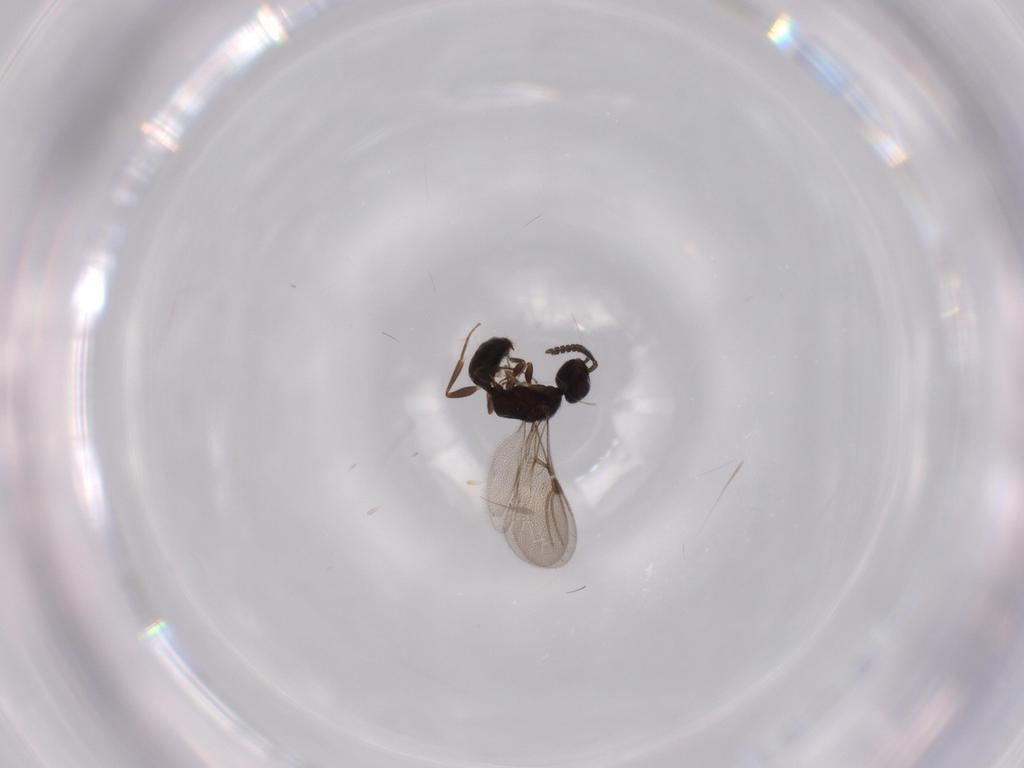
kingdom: Animalia
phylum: Arthropoda
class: Insecta
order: Hymenoptera
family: Bethylidae
